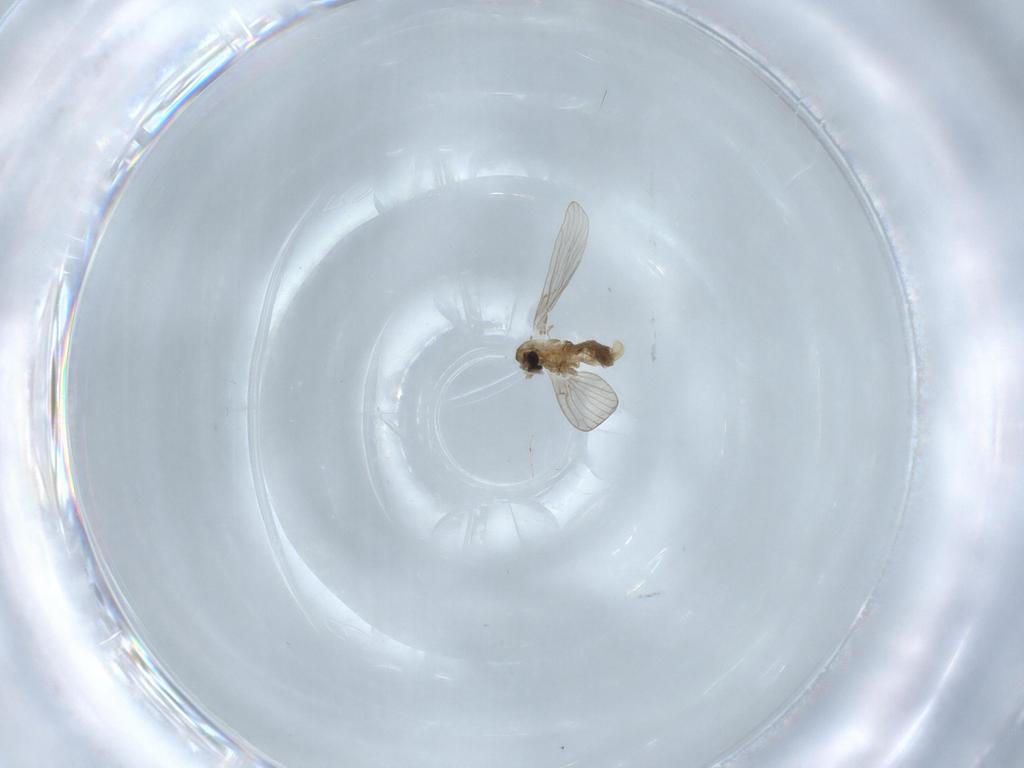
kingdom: Animalia
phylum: Arthropoda
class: Insecta
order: Diptera
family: Psychodidae
